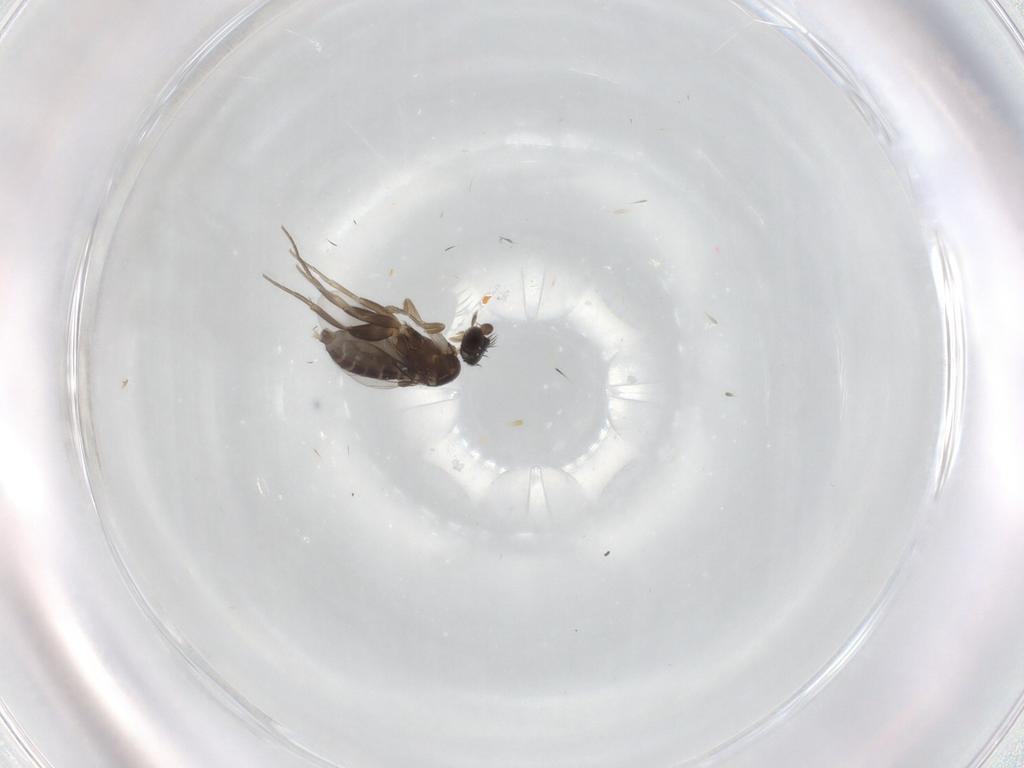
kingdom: Animalia
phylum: Arthropoda
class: Insecta
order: Diptera
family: Phoridae
